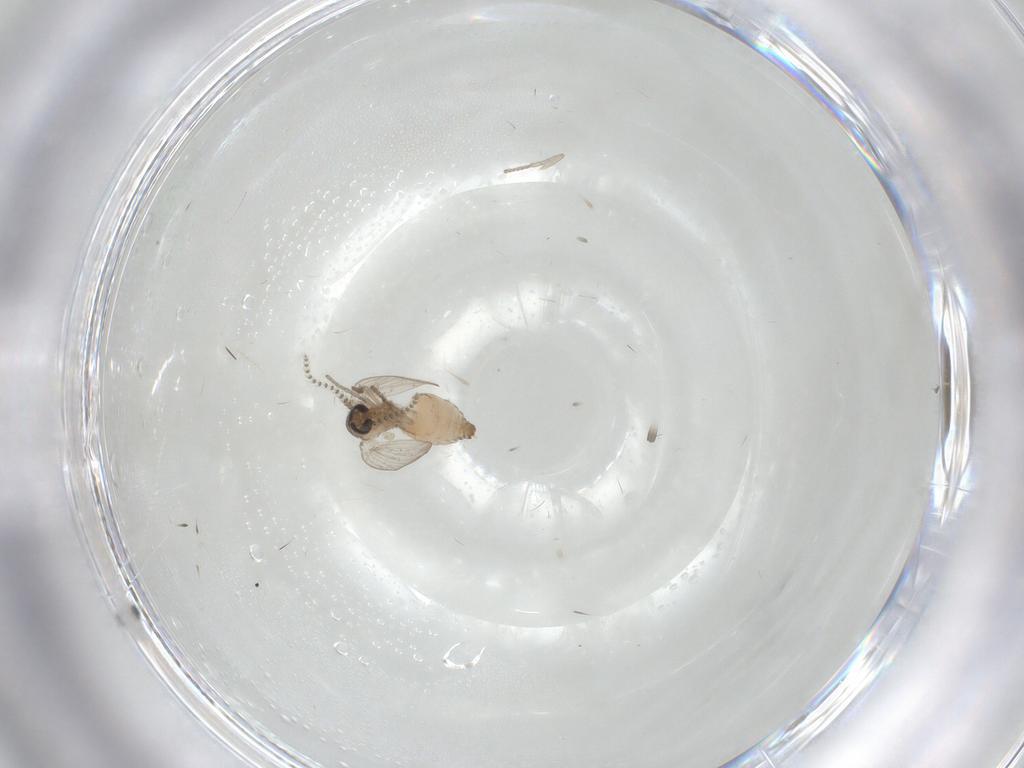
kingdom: Animalia
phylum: Arthropoda
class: Insecta
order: Diptera
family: Psychodidae
